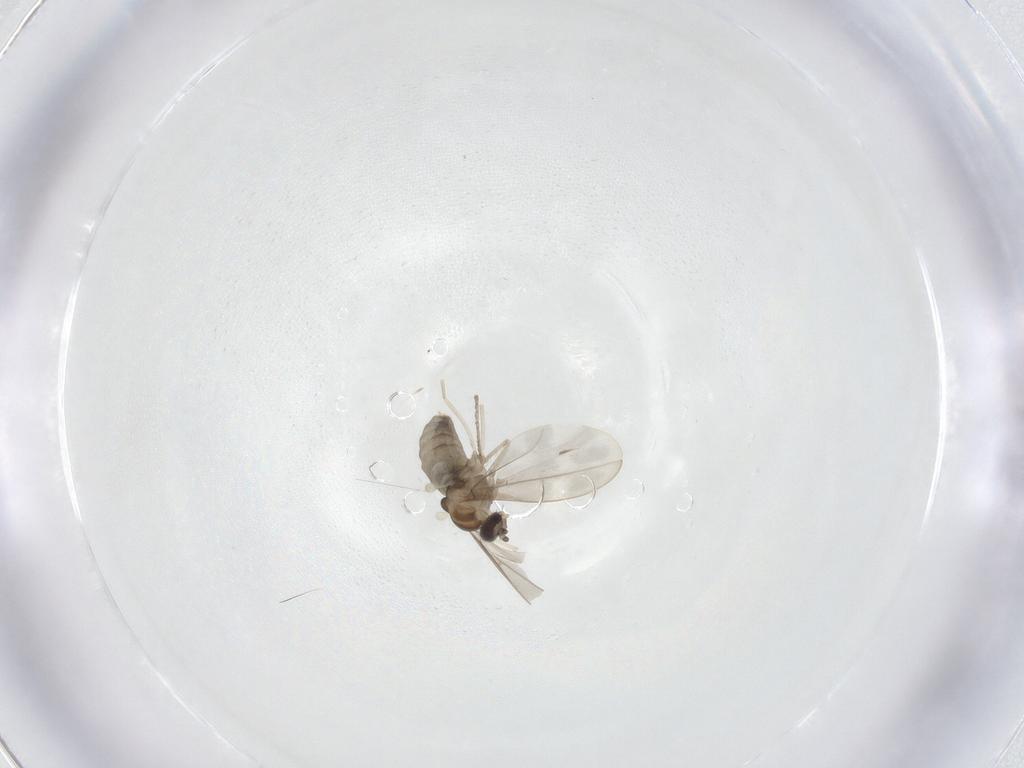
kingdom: Animalia
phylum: Arthropoda
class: Insecta
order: Diptera
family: Cecidomyiidae
